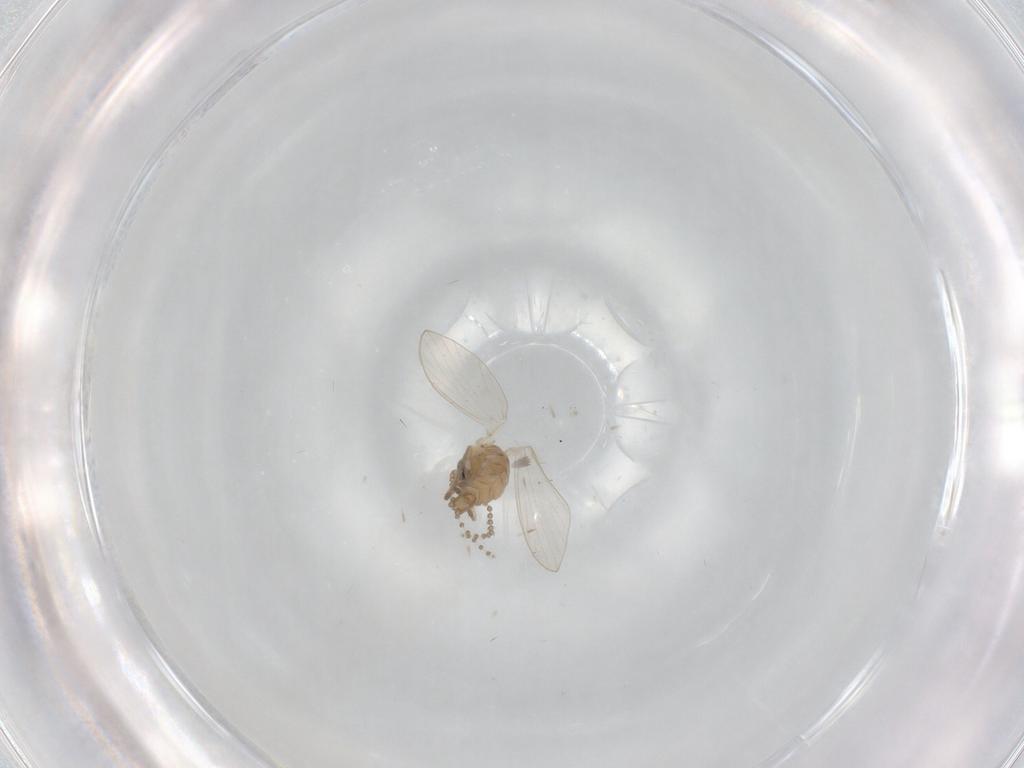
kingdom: Animalia
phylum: Arthropoda
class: Insecta
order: Diptera
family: Psychodidae
